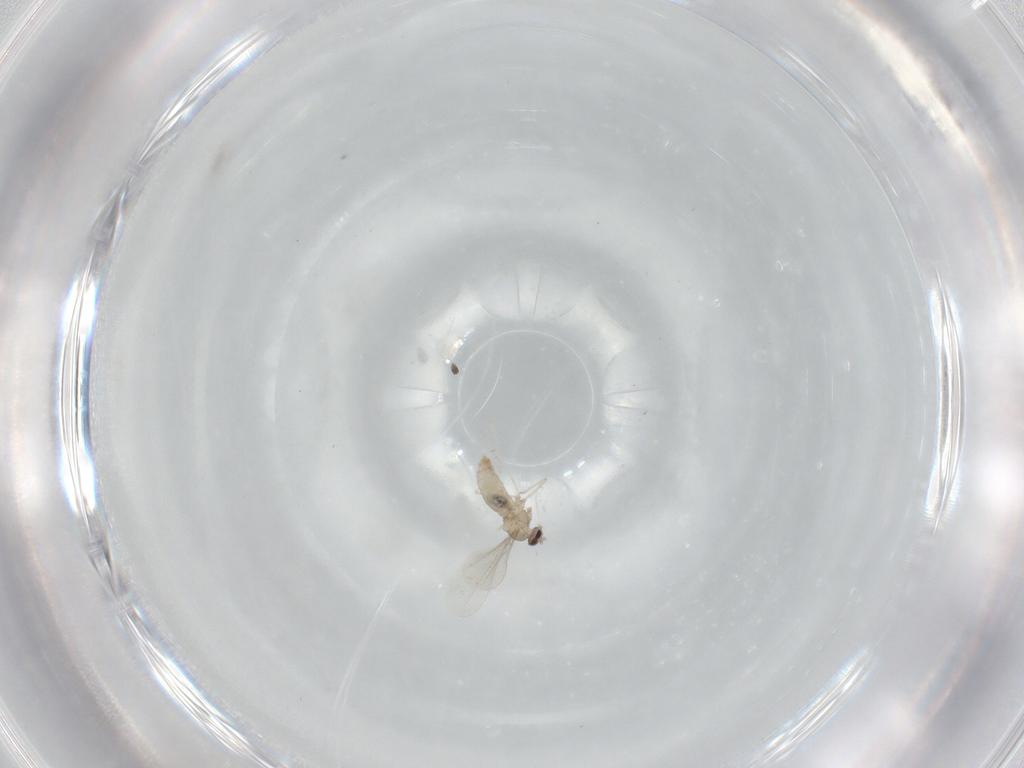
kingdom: Animalia
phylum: Arthropoda
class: Insecta
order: Diptera
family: Cecidomyiidae
